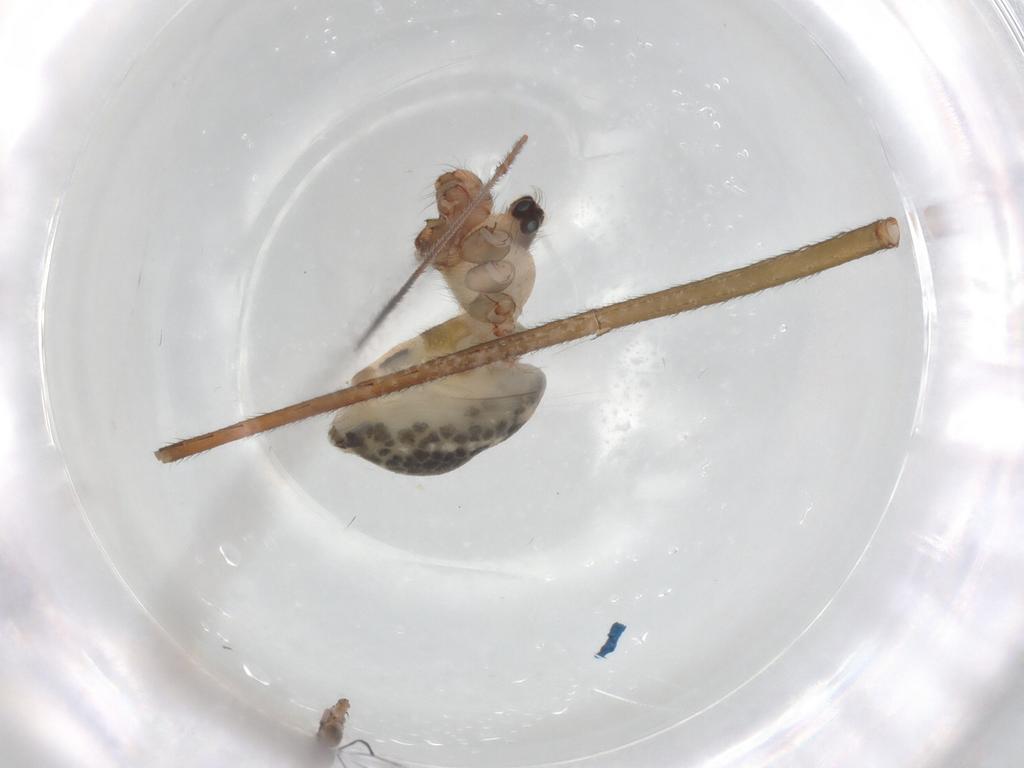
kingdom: Animalia
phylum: Arthropoda
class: Arachnida
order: Araneae
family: Pholcidae
